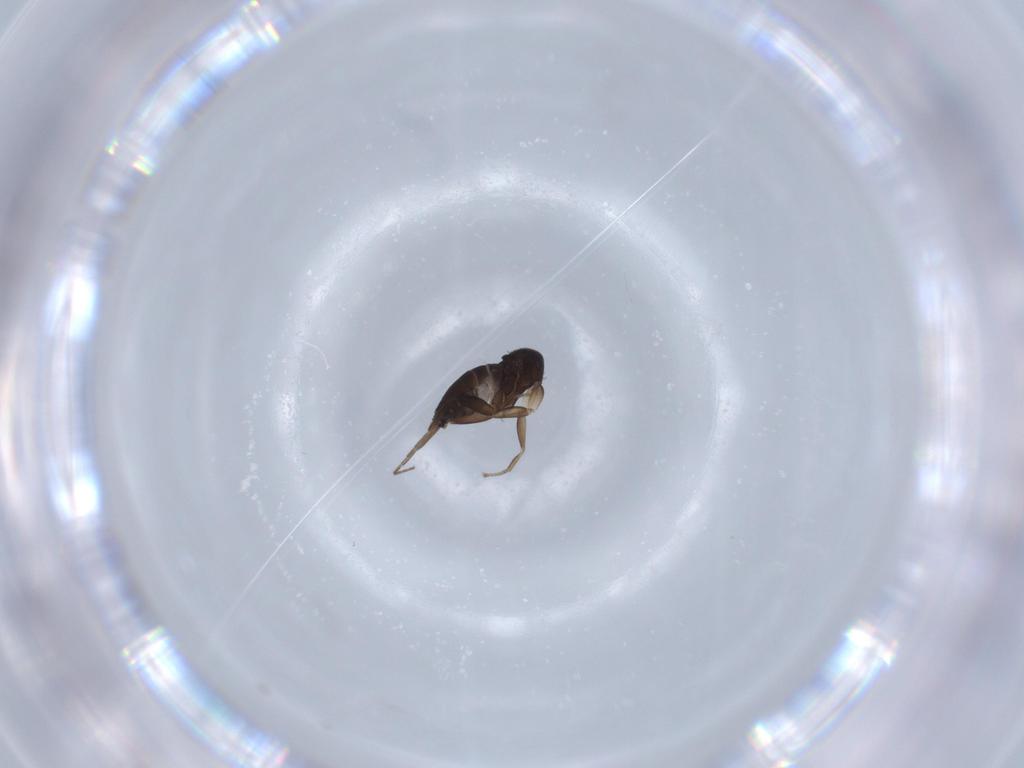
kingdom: Animalia
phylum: Arthropoda
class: Insecta
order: Diptera
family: Phoridae
